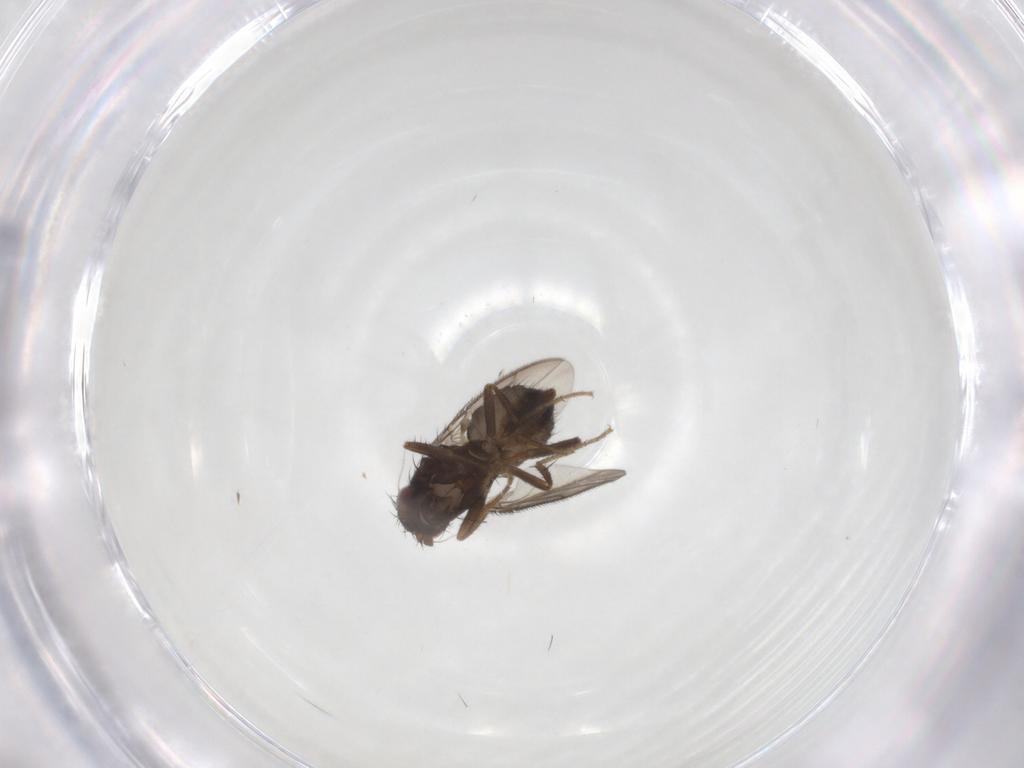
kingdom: Animalia
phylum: Arthropoda
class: Insecta
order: Diptera
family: Sphaeroceridae
